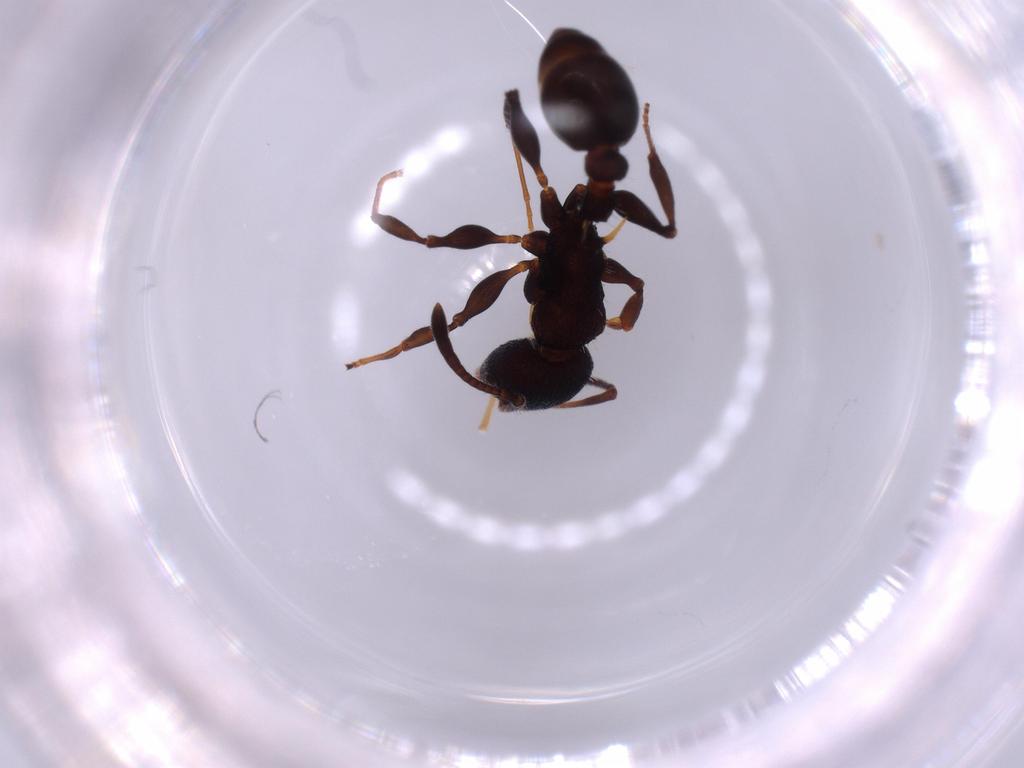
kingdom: Animalia
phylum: Arthropoda
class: Insecta
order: Hymenoptera
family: Formicidae
